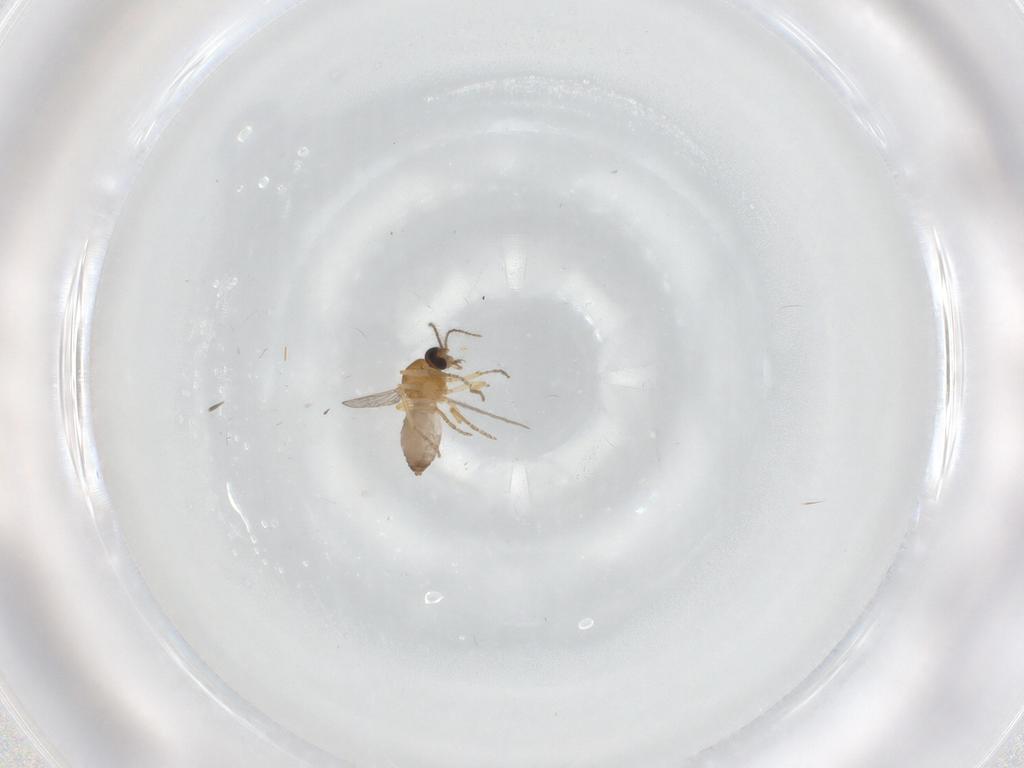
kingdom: Animalia
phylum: Arthropoda
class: Insecta
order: Diptera
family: Ceratopogonidae
